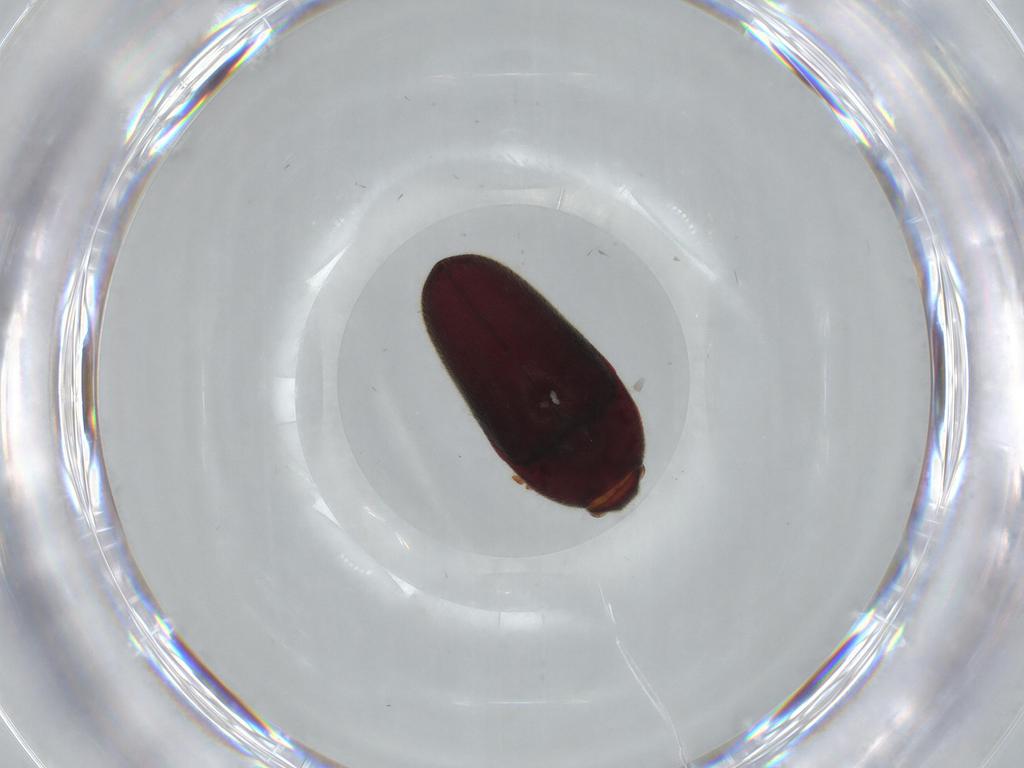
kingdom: Animalia
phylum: Arthropoda
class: Insecta
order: Coleoptera
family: Throscidae
